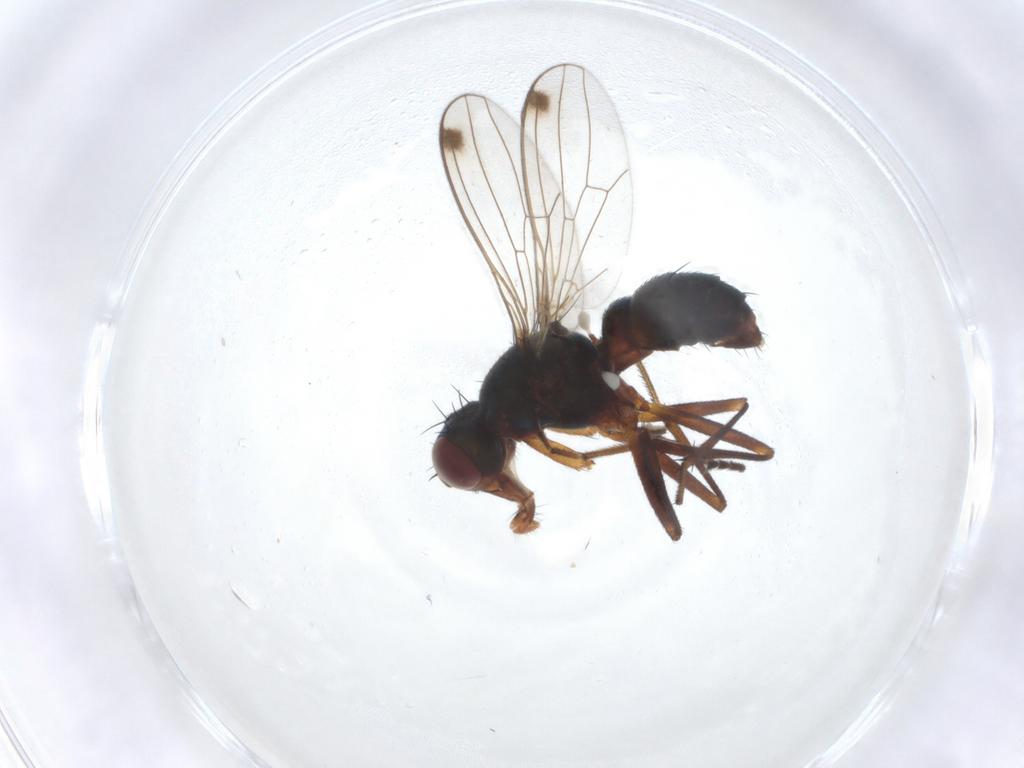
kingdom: Animalia
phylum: Arthropoda
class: Insecta
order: Diptera
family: Sepsidae
